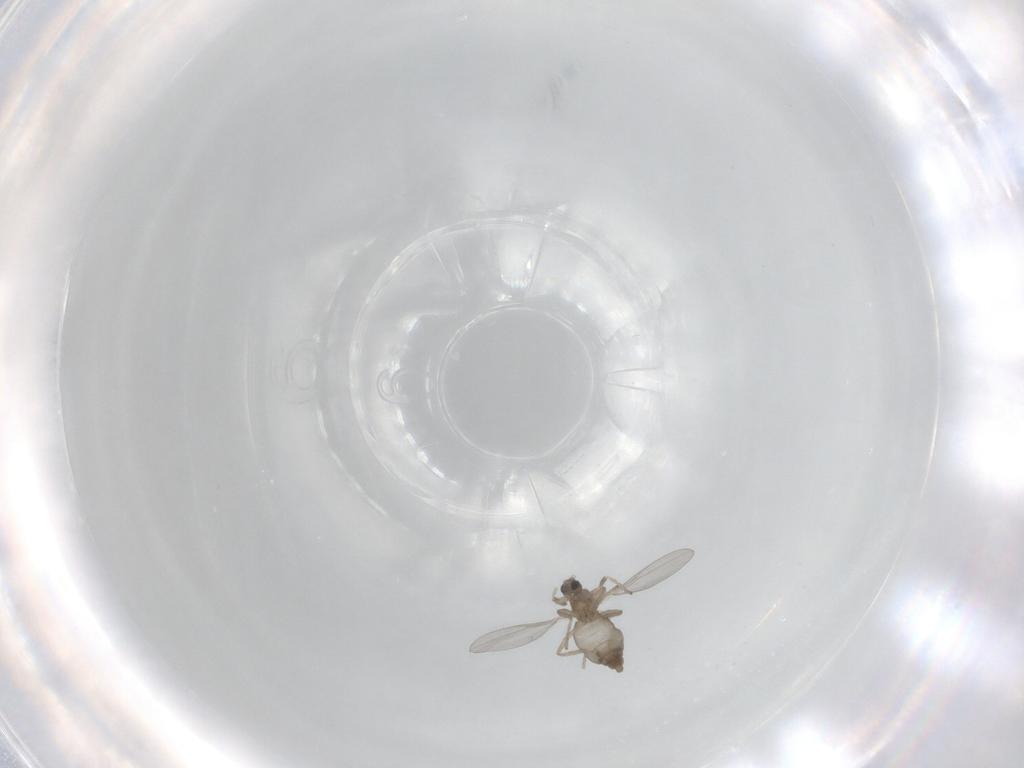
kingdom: Animalia
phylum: Arthropoda
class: Insecta
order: Diptera
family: Cecidomyiidae
